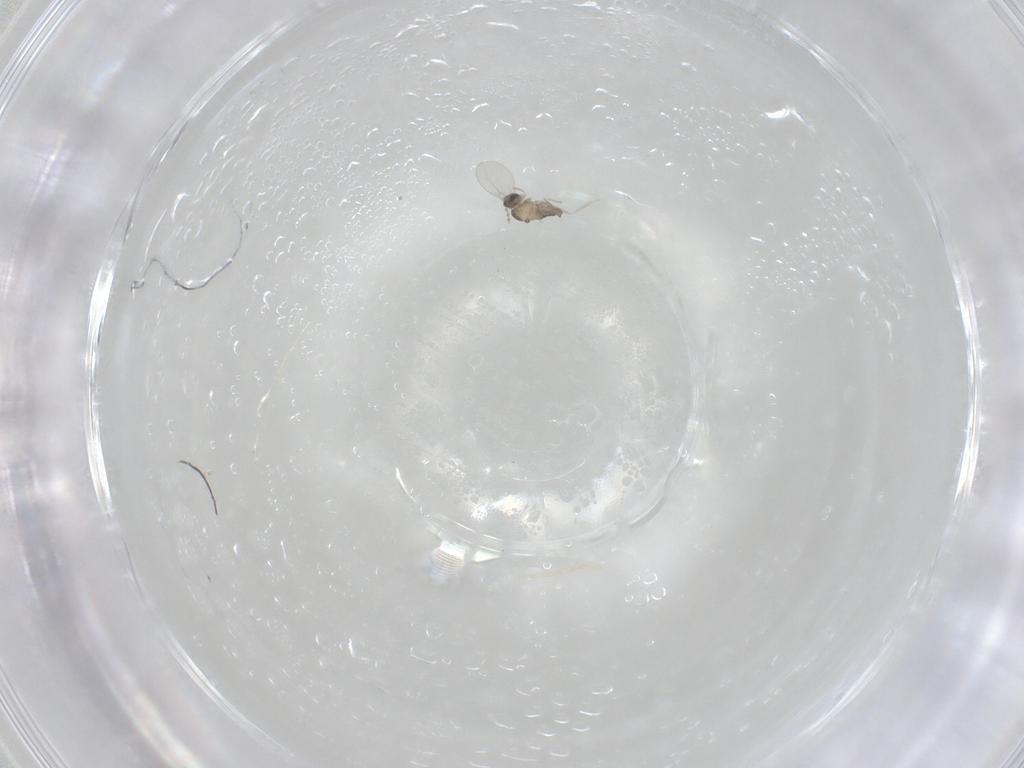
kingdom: Animalia
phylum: Arthropoda
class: Insecta
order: Diptera
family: Cecidomyiidae
